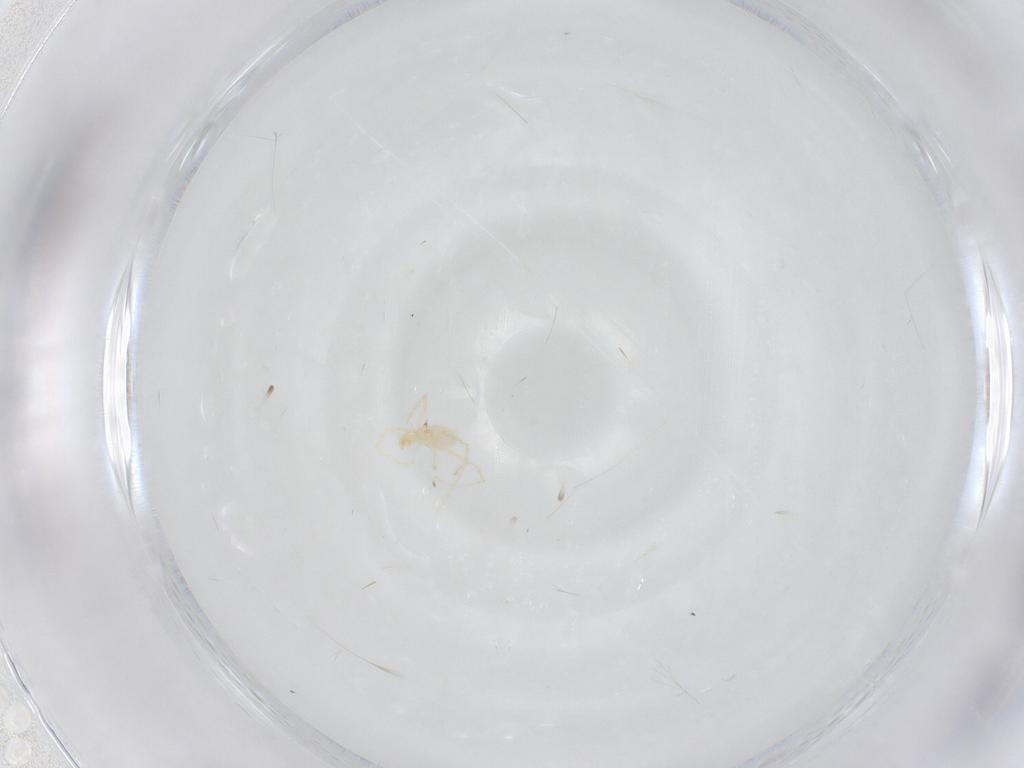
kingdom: Animalia
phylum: Arthropoda
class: Arachnida
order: Trombidiformes
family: Erythraeidae
